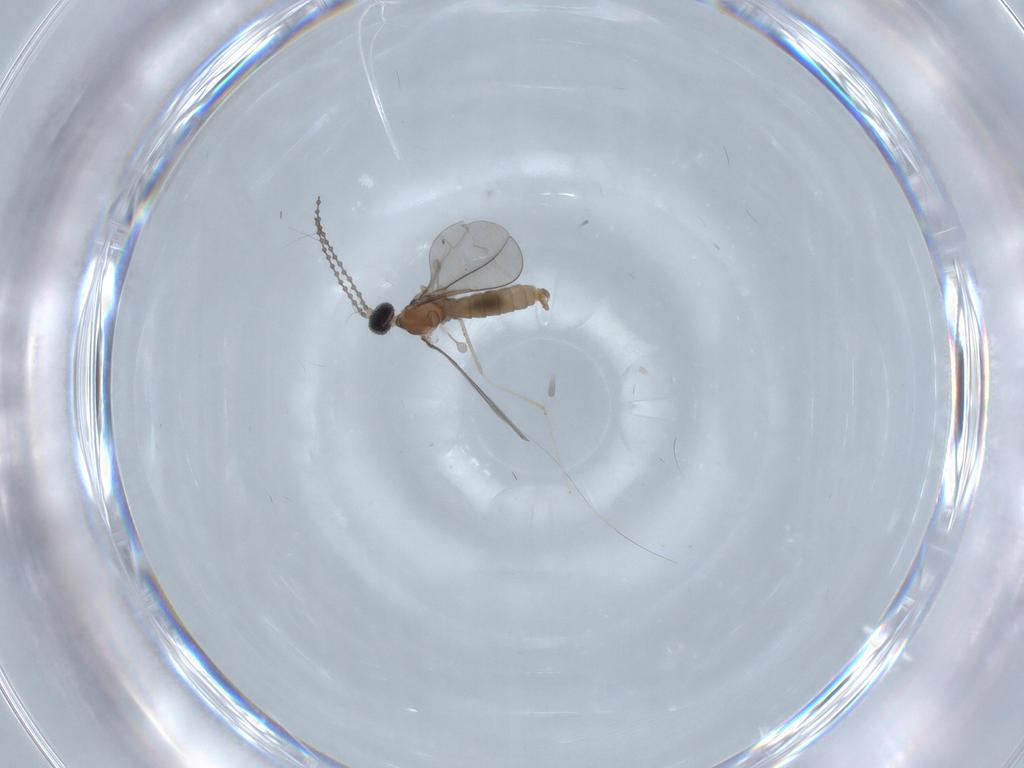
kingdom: Animalia
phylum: Arthropoda
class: Insecta
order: Diptera
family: Cecidomyiidae
